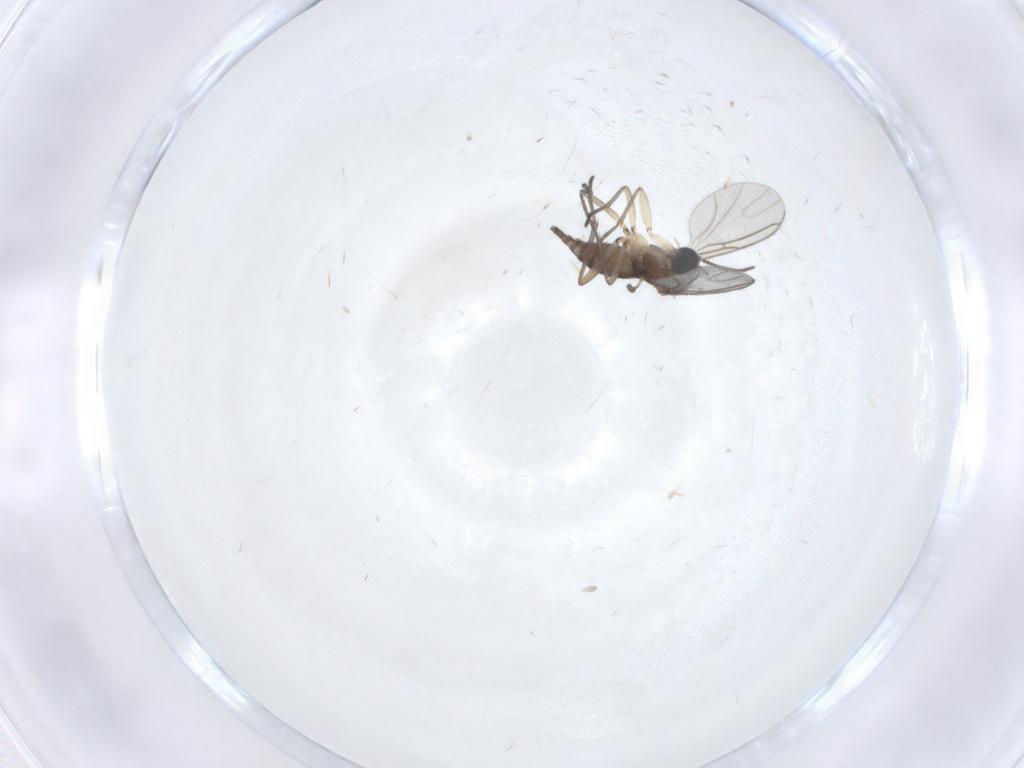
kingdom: Animalia
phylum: Arthropoda
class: Insecta
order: Diptera
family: Sciaridae
